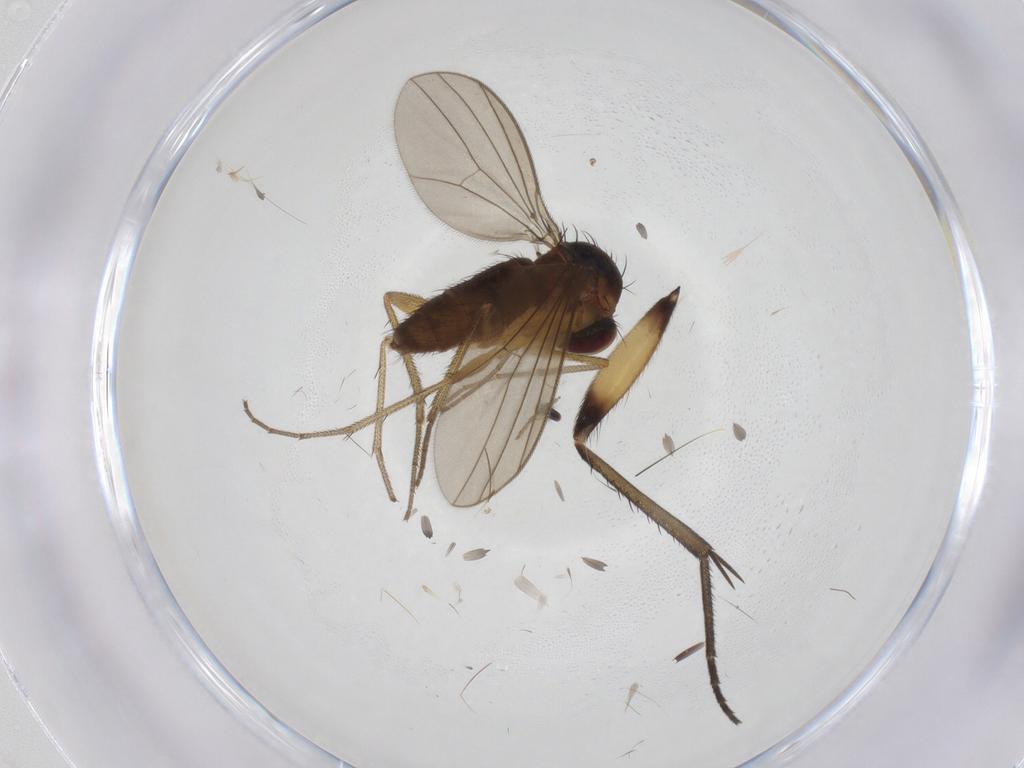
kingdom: Animalia
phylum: Arthropoda
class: Insecta
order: Diptera
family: Dolichopodidae
